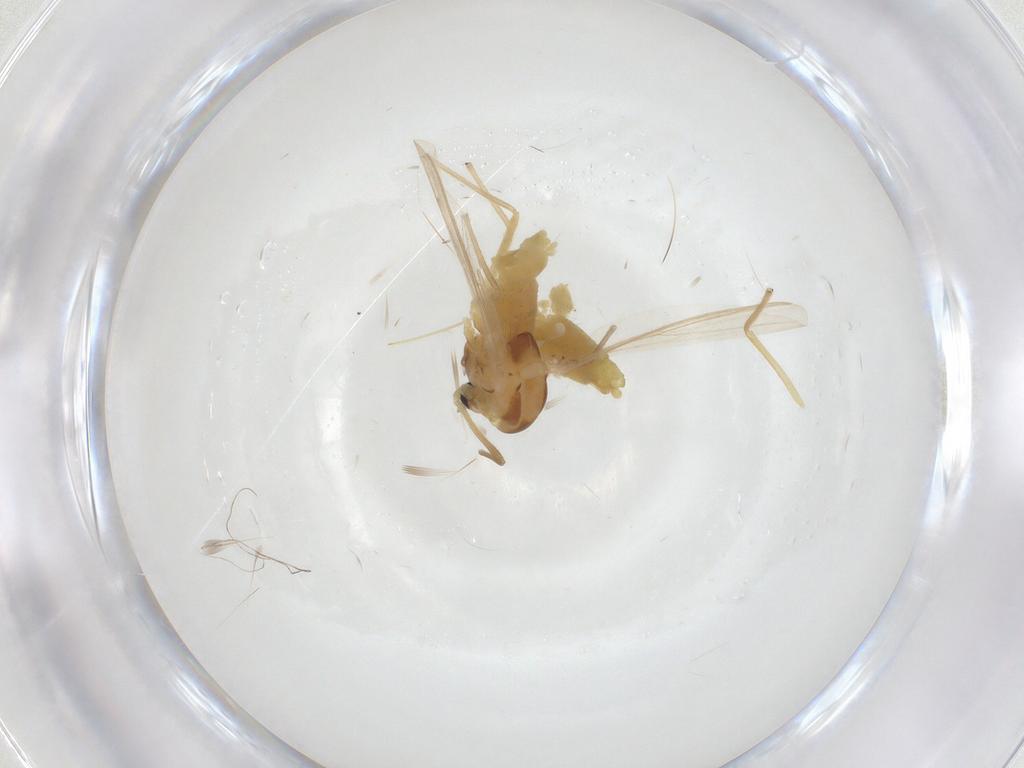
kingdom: Animalia
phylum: Arthropoda
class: Insecta
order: Diptera
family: Chironomidae
